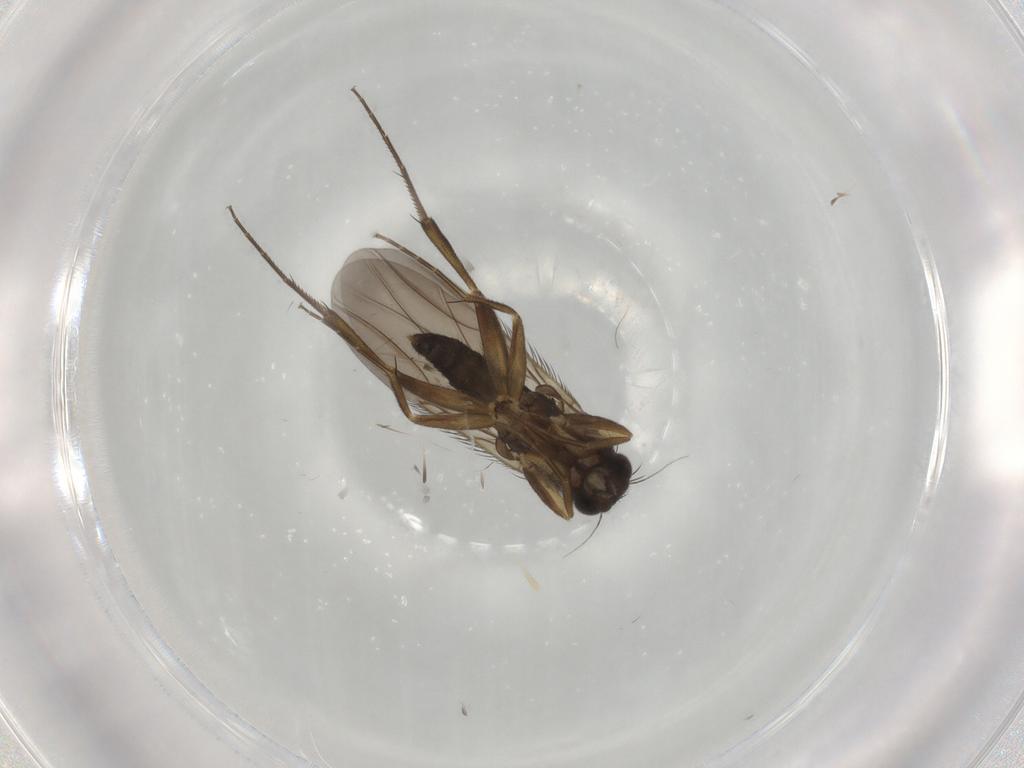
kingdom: Animalia
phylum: Arthropoda
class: Insecta
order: Diptera
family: Phoridae
